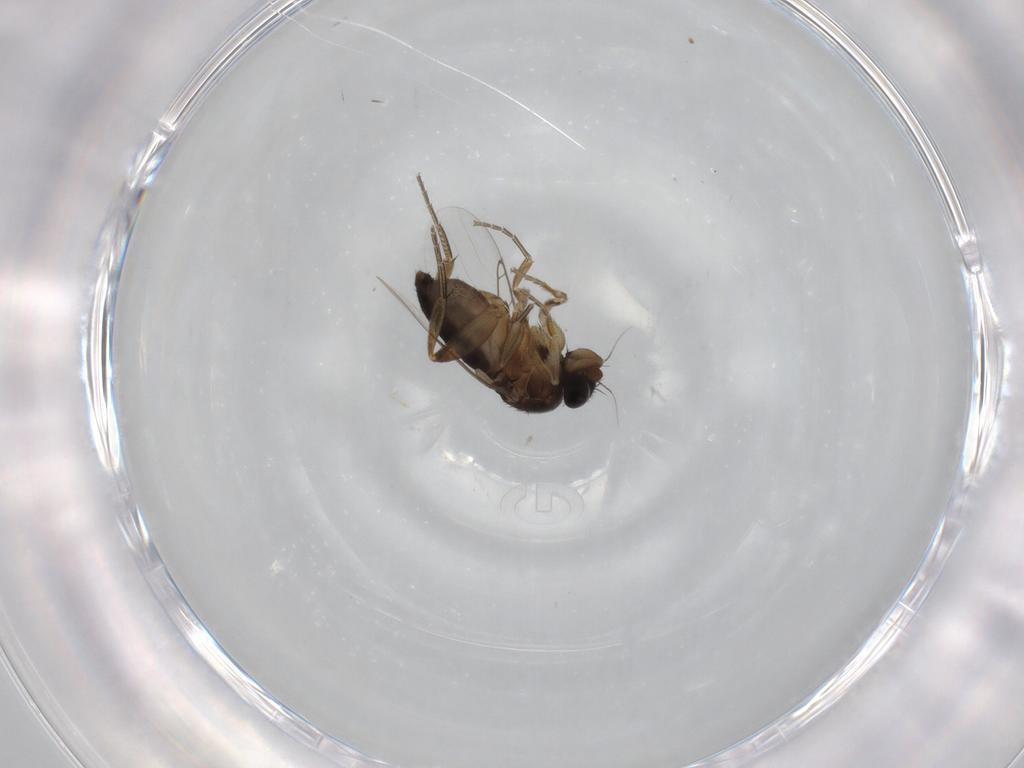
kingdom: Animalia
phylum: Arthropoda
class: Insecta
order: Diptera
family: Phoridae
